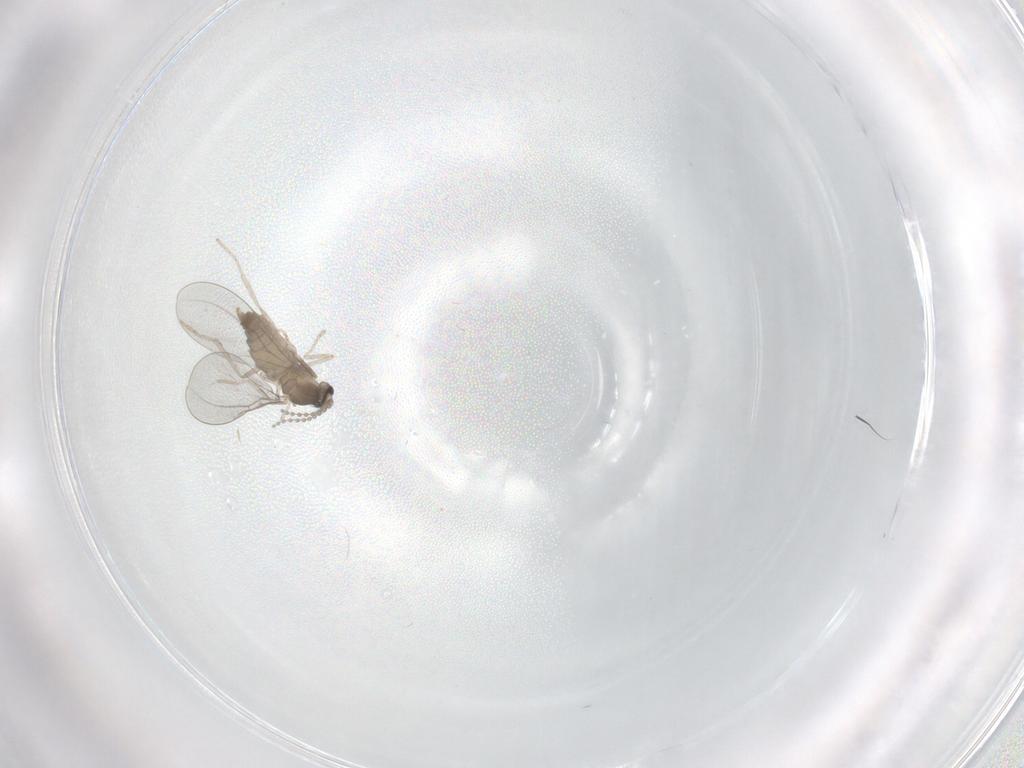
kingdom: Animalia
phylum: Arthropoda
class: Insecta
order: Diptera
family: Cecidomyiidae
